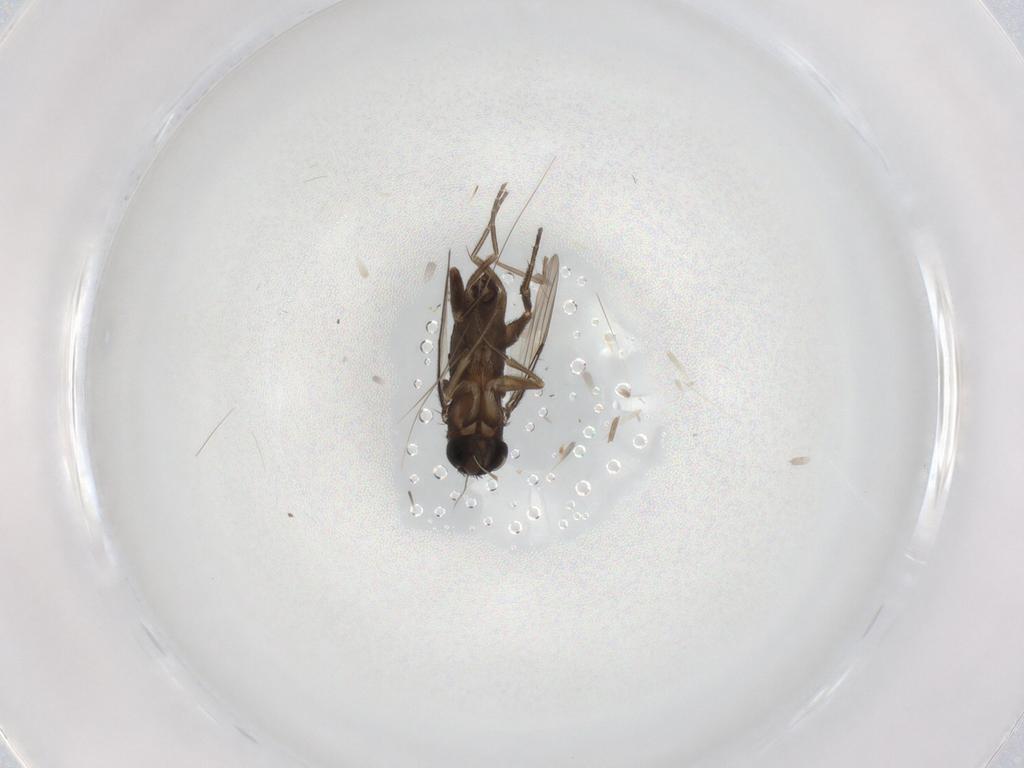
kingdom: Animalia
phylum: Arthropoda
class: Insecta
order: Diptera
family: Phoridae
